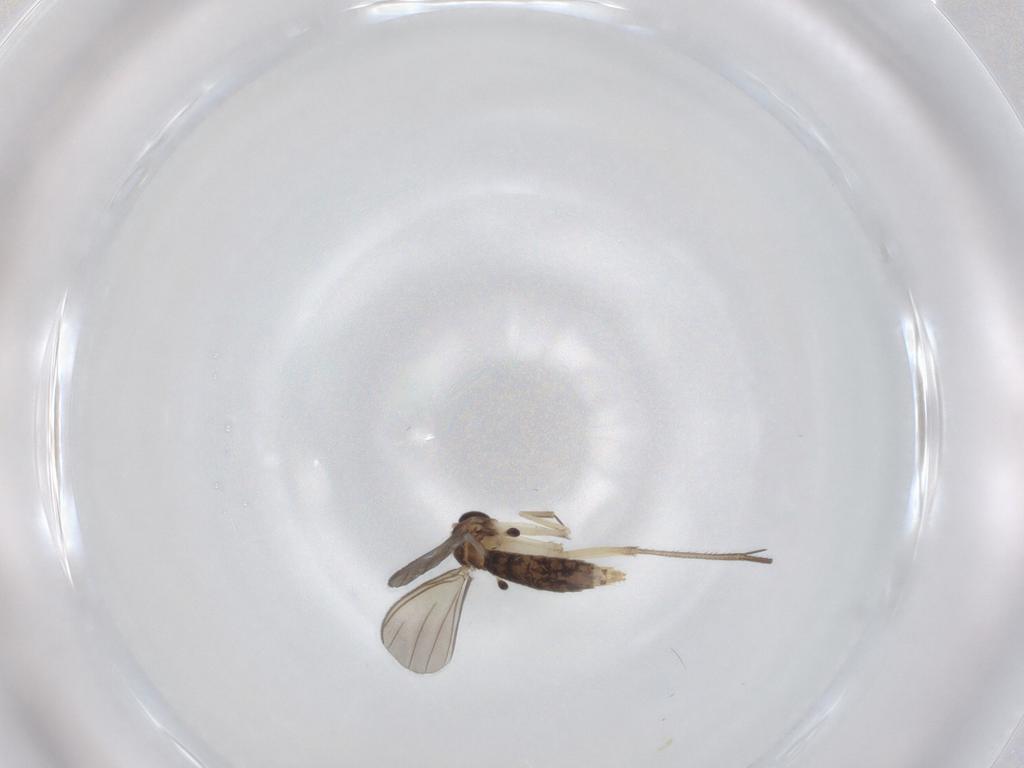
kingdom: Animalia
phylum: Arthropoda
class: Insecta
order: Diptera
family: Mycetophilidae
